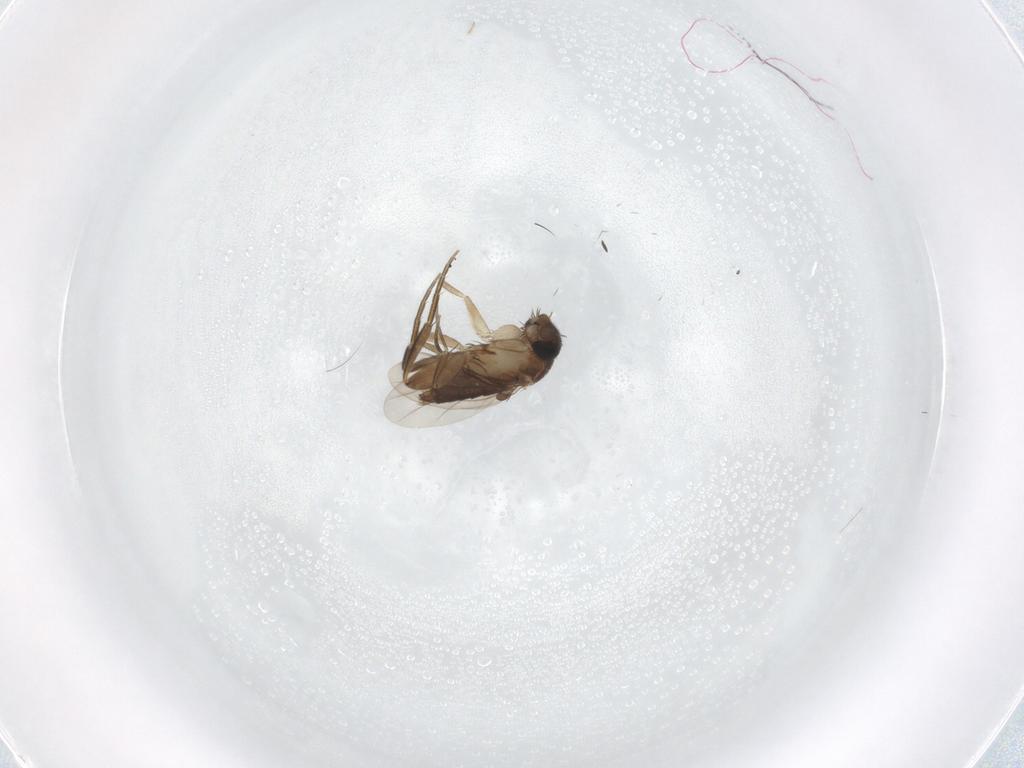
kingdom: Animalia
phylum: Arthropoda
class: Insecta
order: Diptera
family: Phoridae
